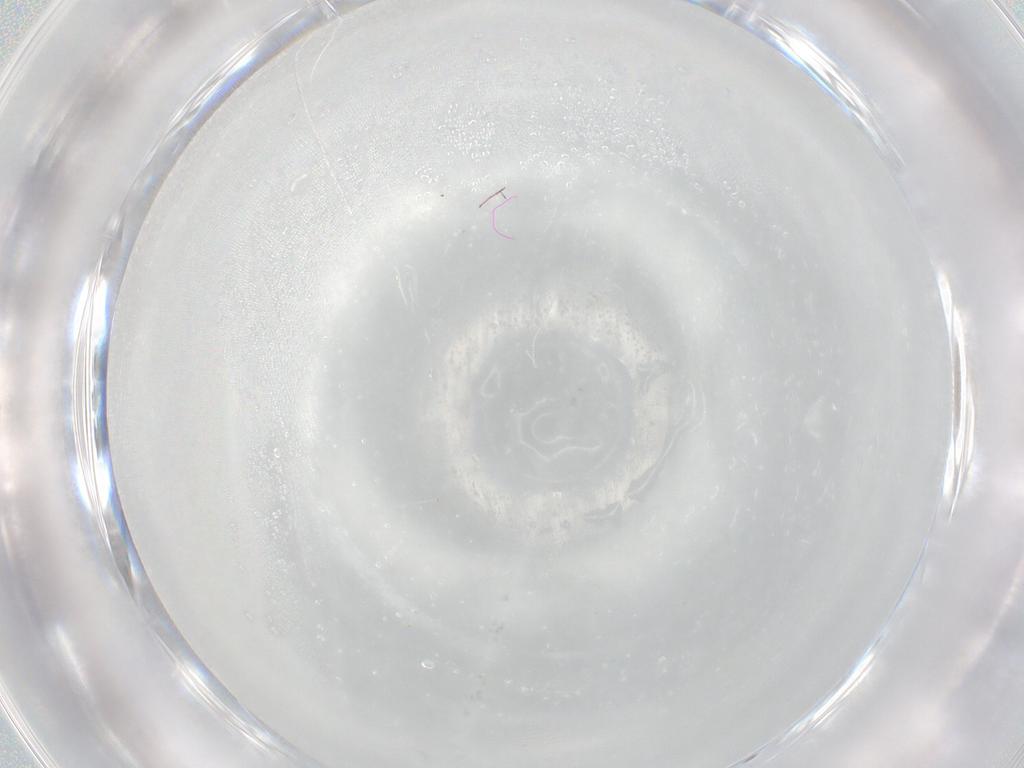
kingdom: Animalia
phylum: Arthropoda
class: Insecta
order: Diptera
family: Cecidomyiidae
